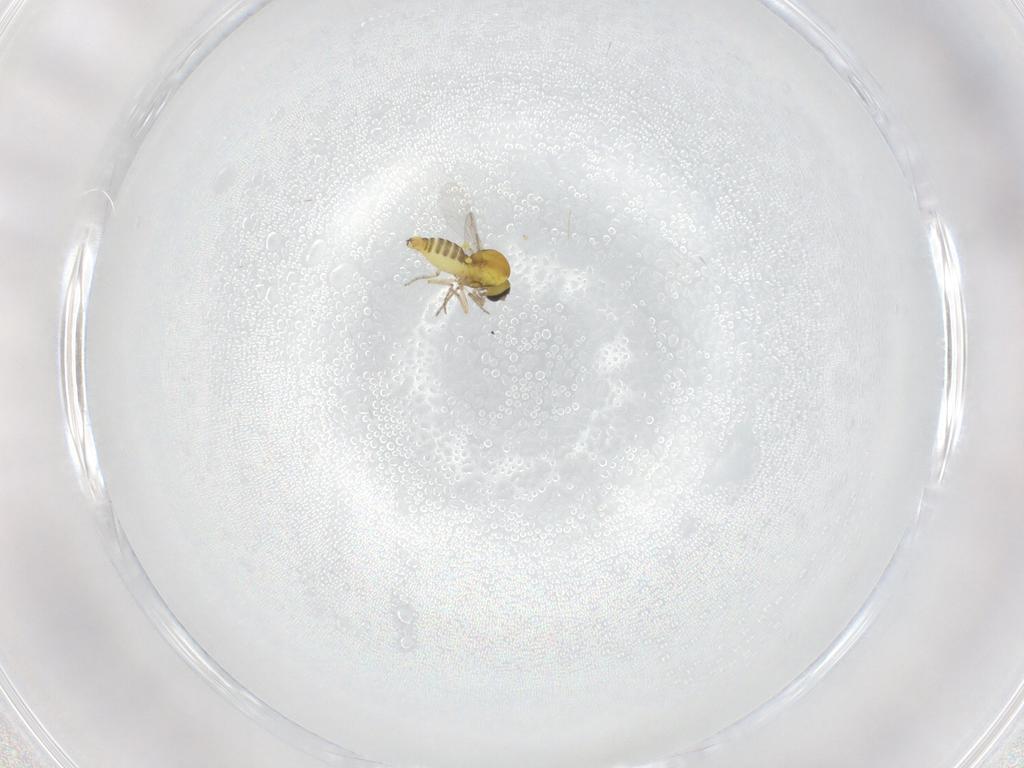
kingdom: Animalia
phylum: Arthropoda
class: Insecta
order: Diptera
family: Ceratopogonidae
